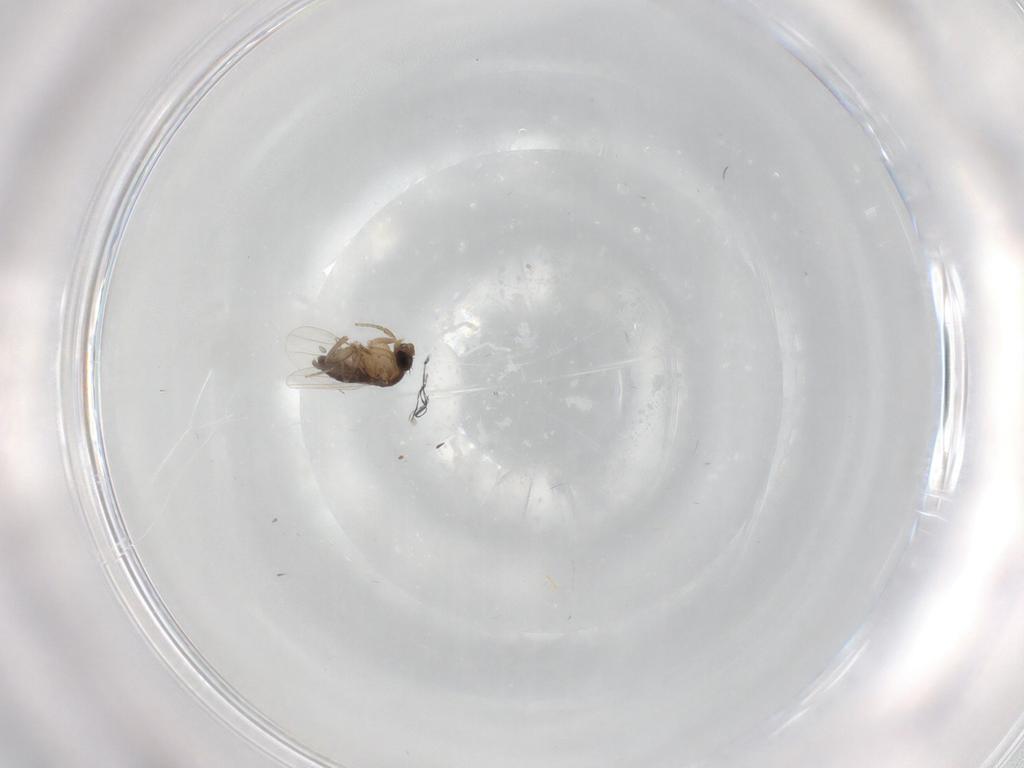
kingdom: Animalia
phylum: Arthropoda
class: Insecta
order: Diptera
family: Phoridae
